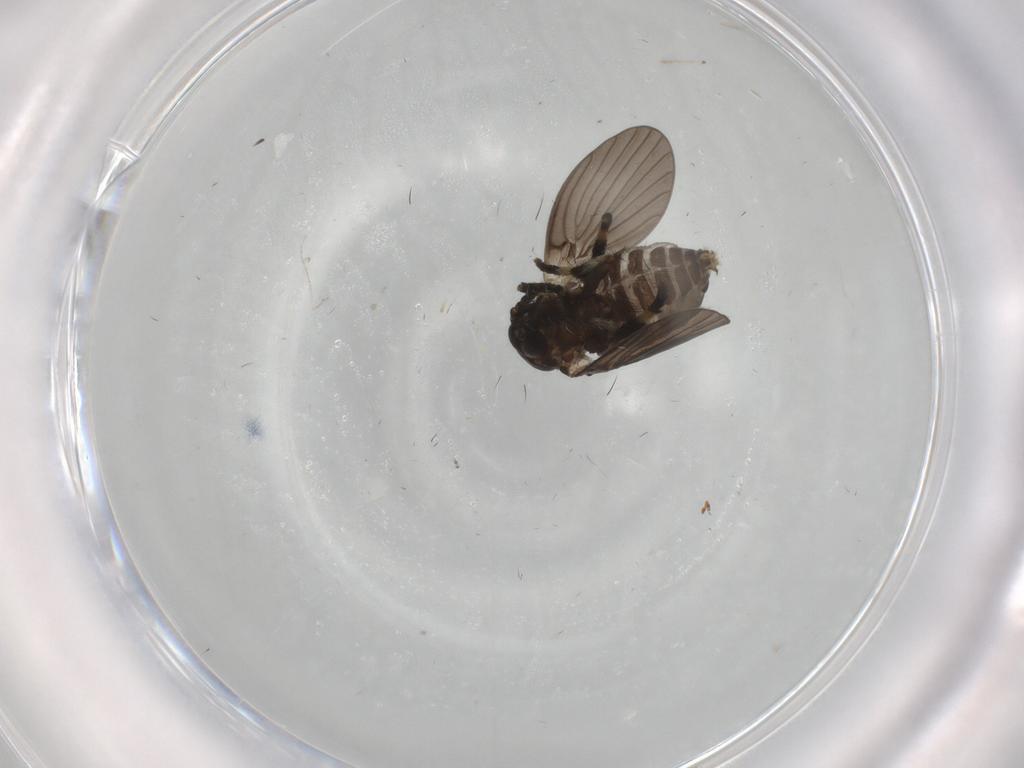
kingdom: Animalia
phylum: Arthropoda
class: Insecta
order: Diptera
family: Psychodidae
